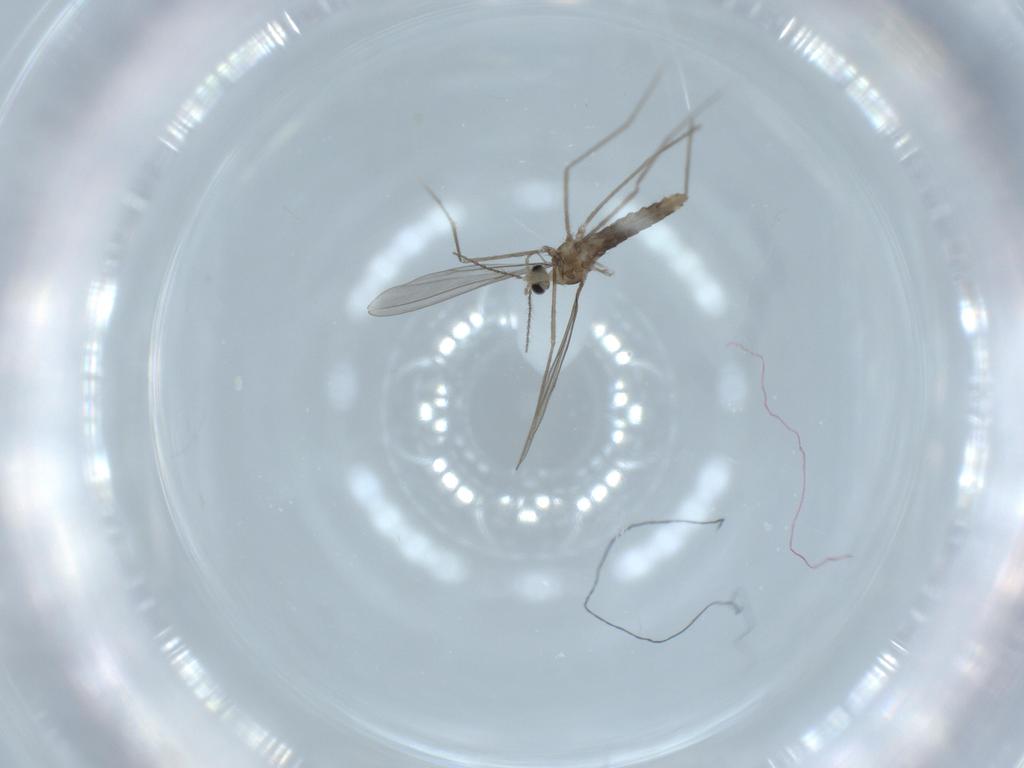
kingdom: Animalia
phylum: Arthropoda
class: Insecta
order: Diptera
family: Cecidomyiidae
